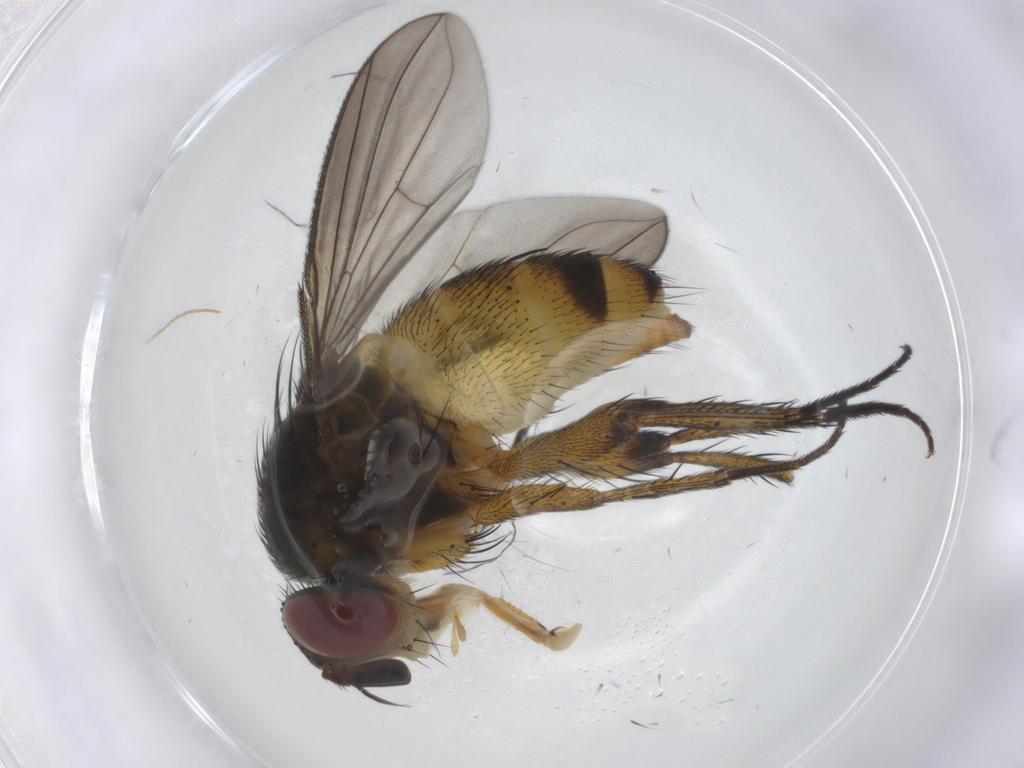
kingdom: Animalia
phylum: Arthropoda
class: Insecta
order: Diptera
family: Tachinidae
